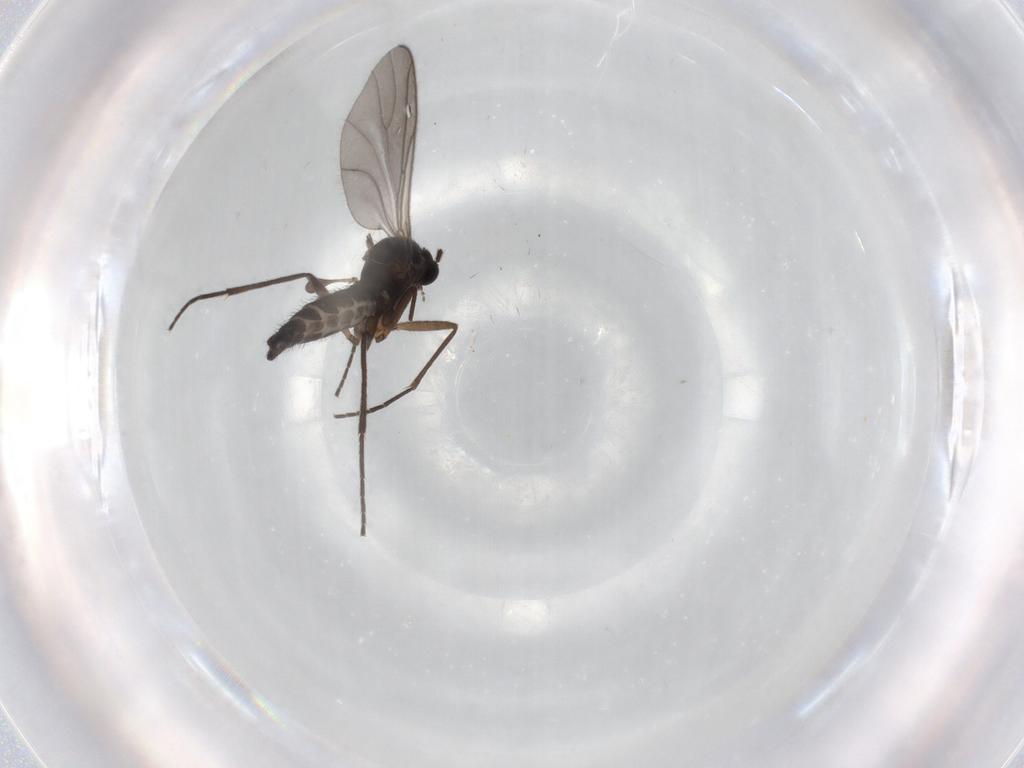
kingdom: Animalia
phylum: Arthropoda
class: Insecta
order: Diptera
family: Sciaridae
